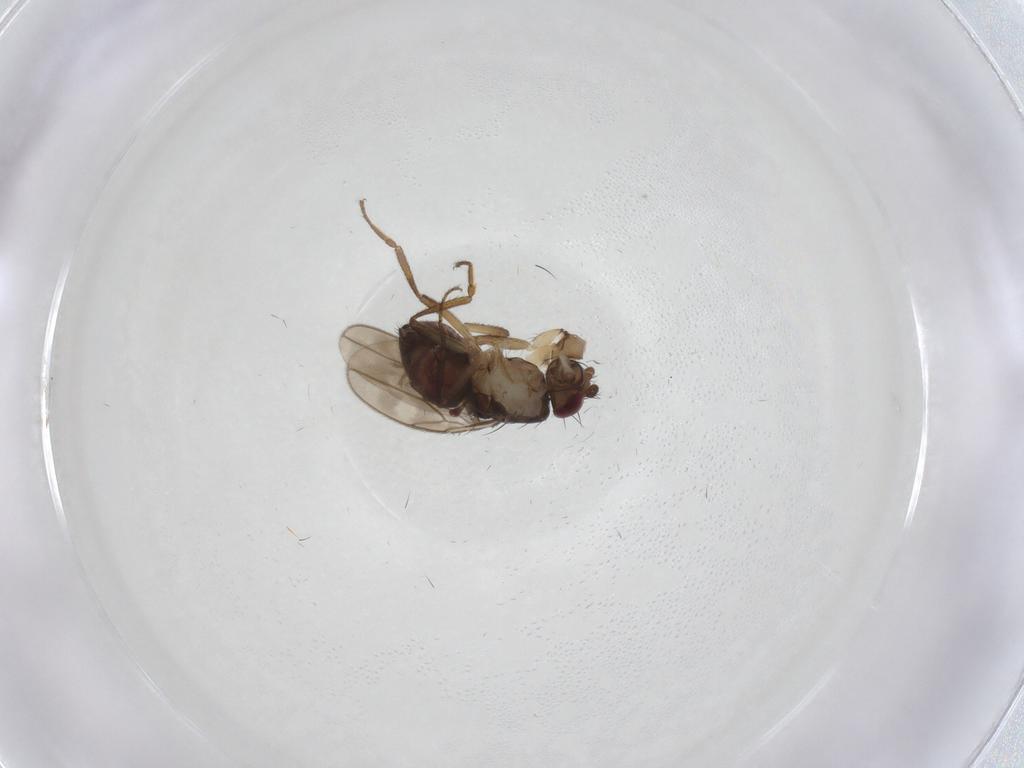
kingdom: Animalia
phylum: Arthropoda
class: Insecta
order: Diptera
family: Sphaeroceridae
